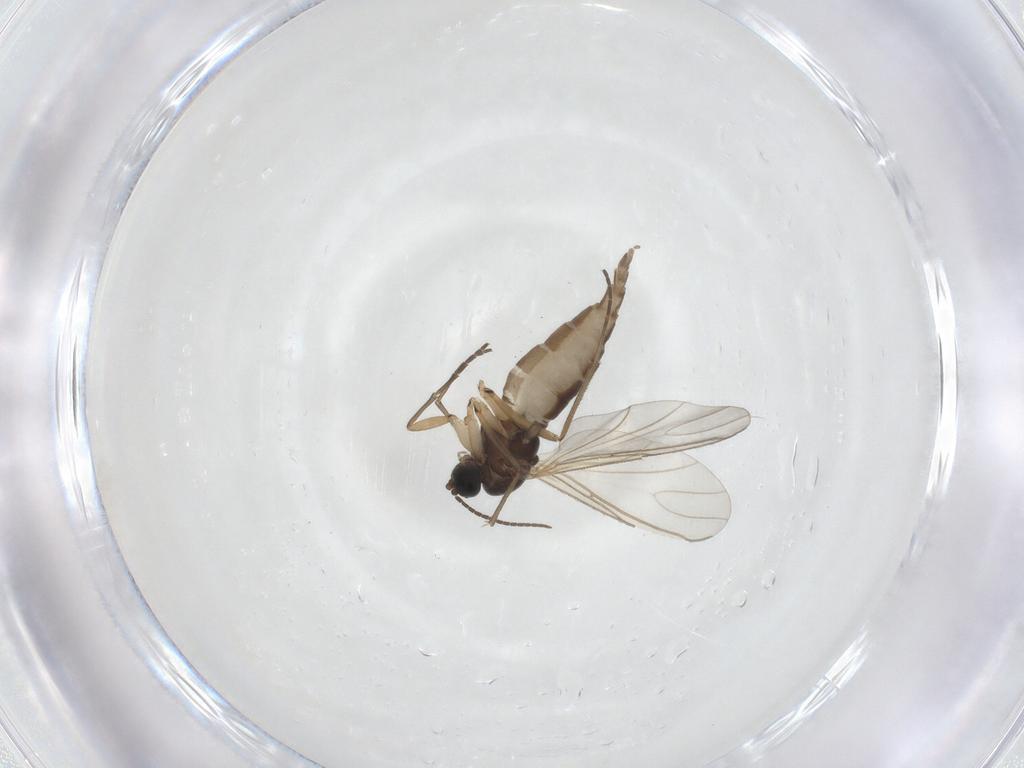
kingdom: Animalia
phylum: Arthropoda
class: Insecta
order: Diptera
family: Sciaridae
